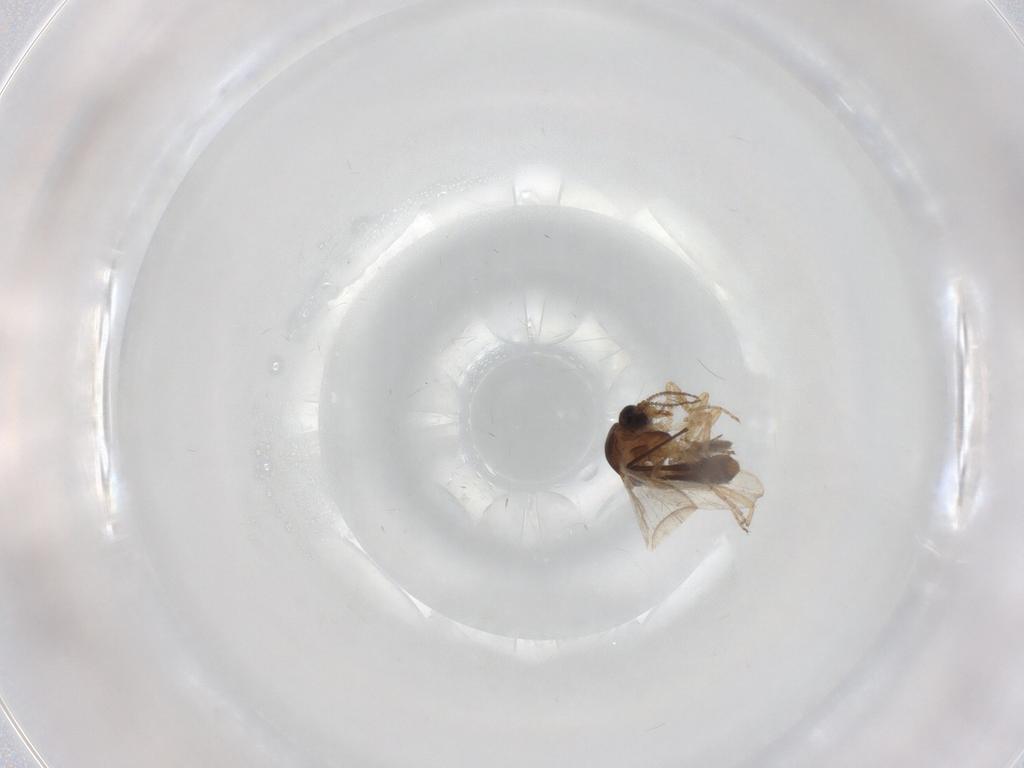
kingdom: Animalia
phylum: Arthropoda
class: Insecta
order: Diptera
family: Ceratopogonidae
